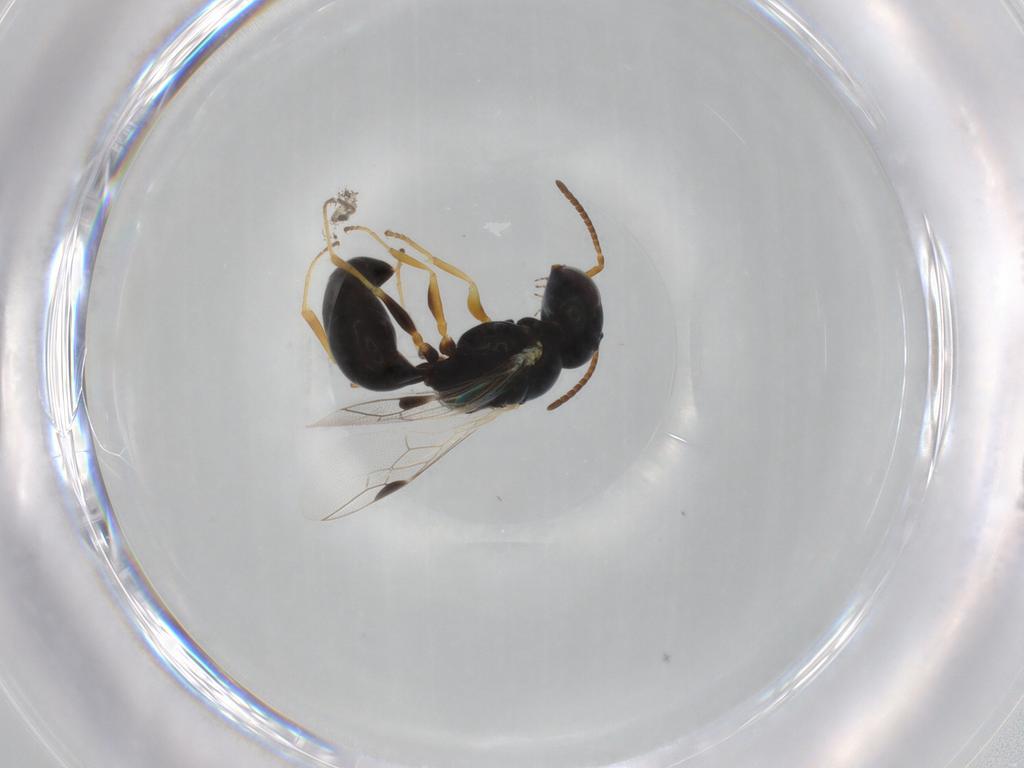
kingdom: Animalia
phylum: Arthropoda
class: Insecta
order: Hymenoptera
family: Pemphredonidae
